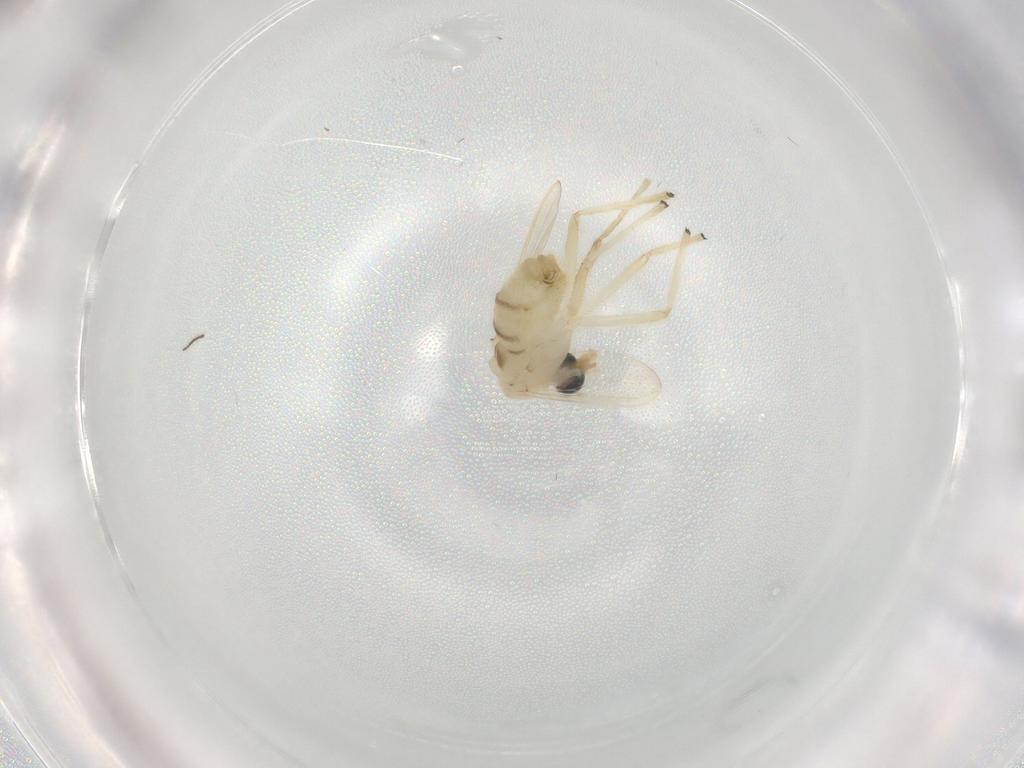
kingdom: Animalia
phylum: Arthropoda
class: Insecta
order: Diptera
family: Chironomidae
